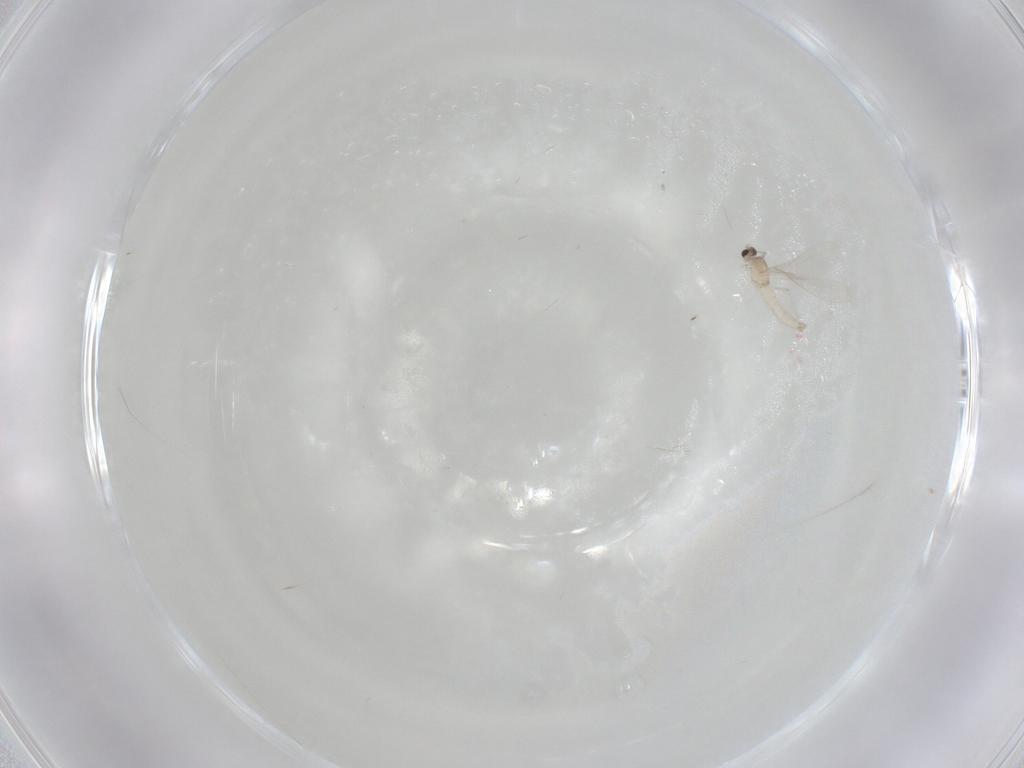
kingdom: Animalia
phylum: Arthropoda
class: Insecta
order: Diptera
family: Cecidomyiidae
